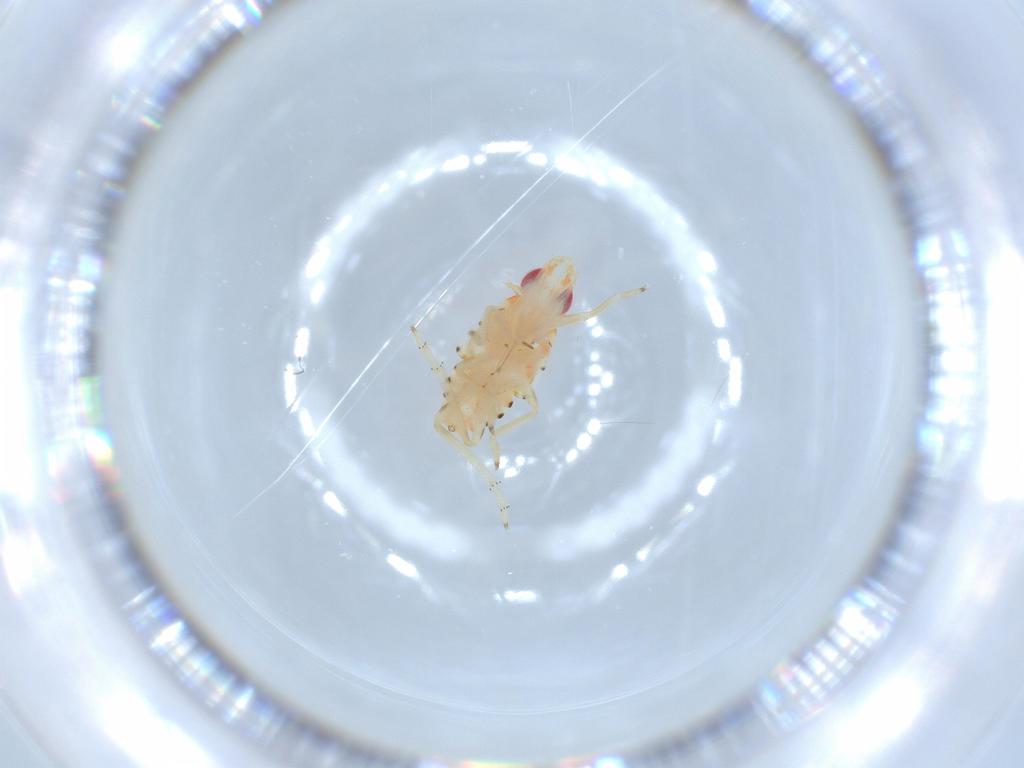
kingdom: Animalia
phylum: Arthropoda
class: Insecta
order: Hemiptera
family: Tropiduchidae
